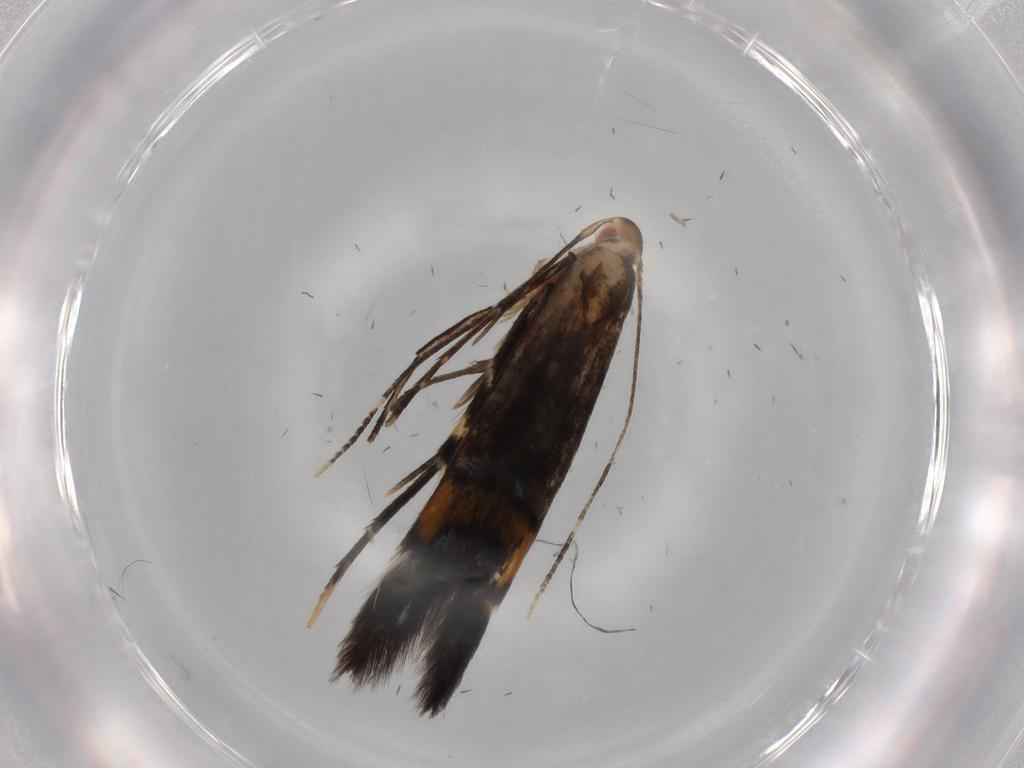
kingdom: Animalia
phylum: Arthropoda
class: Insecta
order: Lepidoptera
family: Cosmopterigidae
